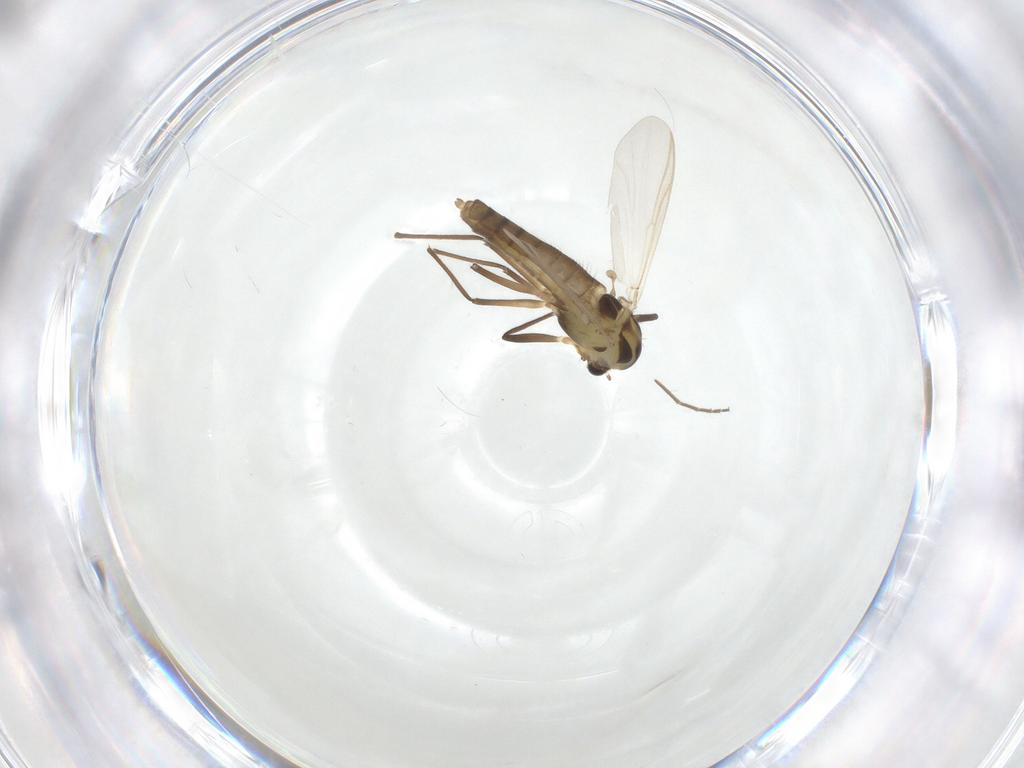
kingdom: Animalia
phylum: Arthropoda
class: Insecta
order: Diptera
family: Chironomidae
